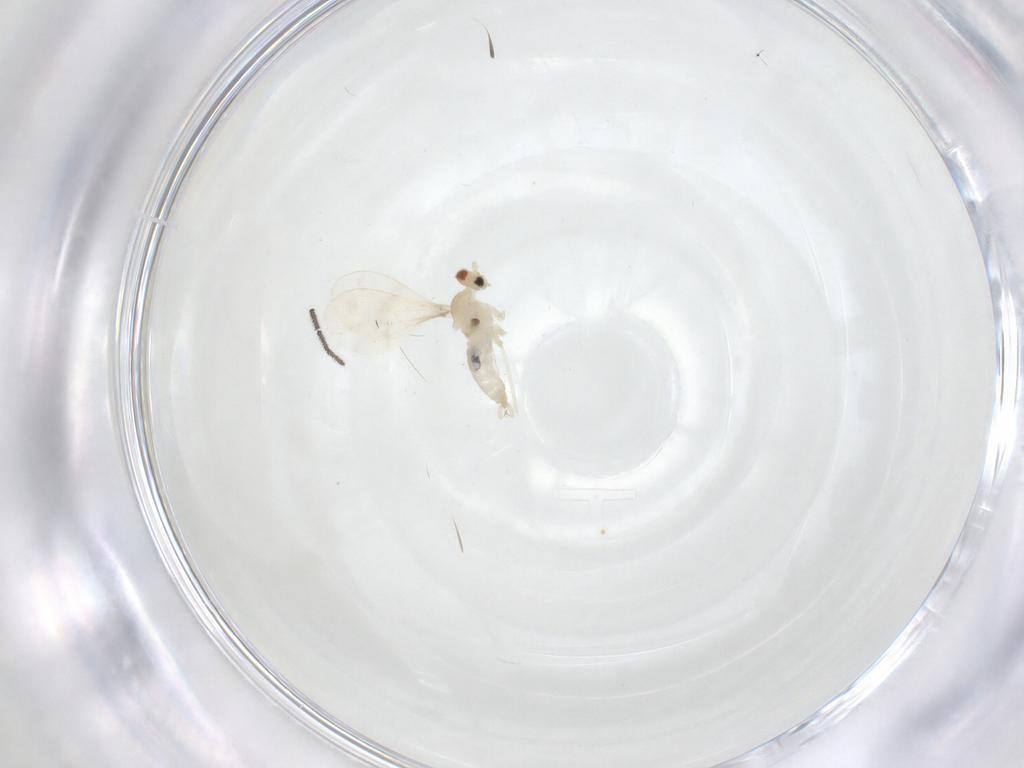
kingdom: Animalia
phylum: Arthropoda
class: Insecta
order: Diptera
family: Cecidomyiidae
